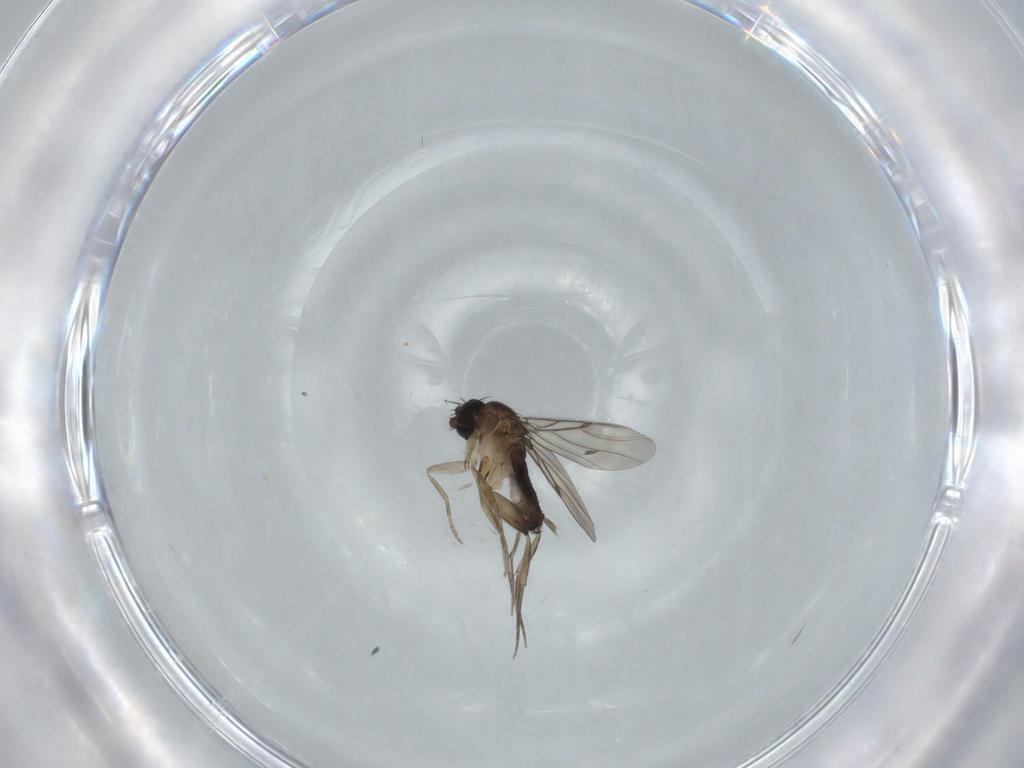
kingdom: Animalia
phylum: Arthropoda
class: Insecta
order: Diptera
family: Phoridae
